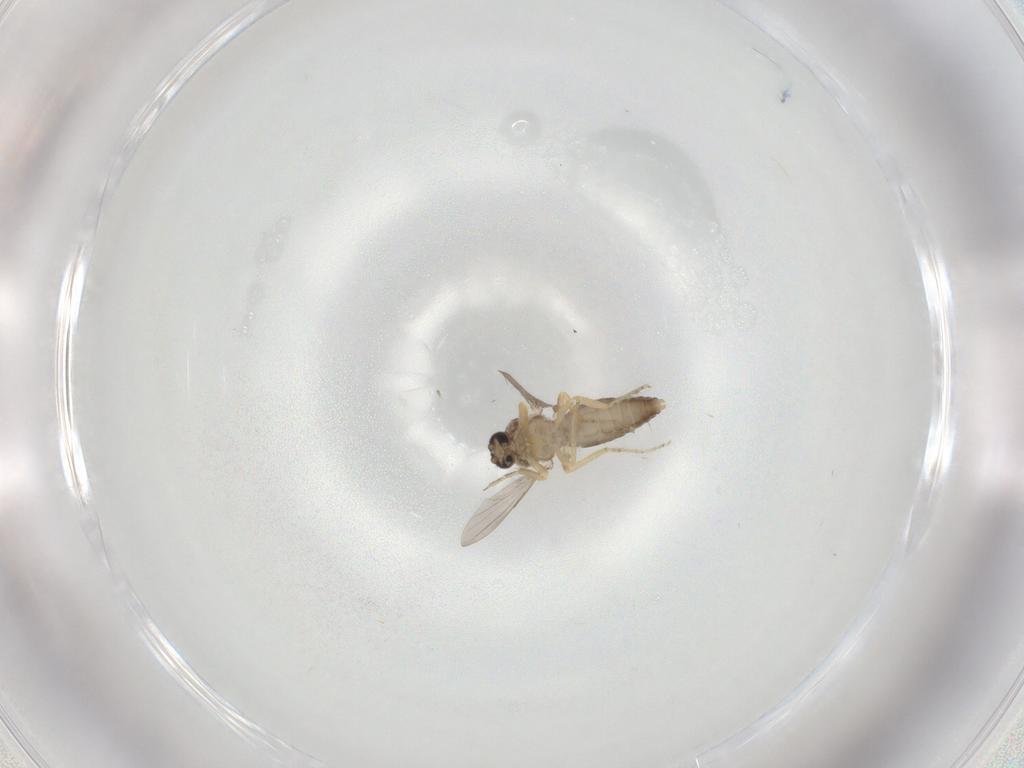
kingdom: Animalia
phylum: Arthropoda
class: Insecta
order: Diptera
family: Ceratopogonidae
